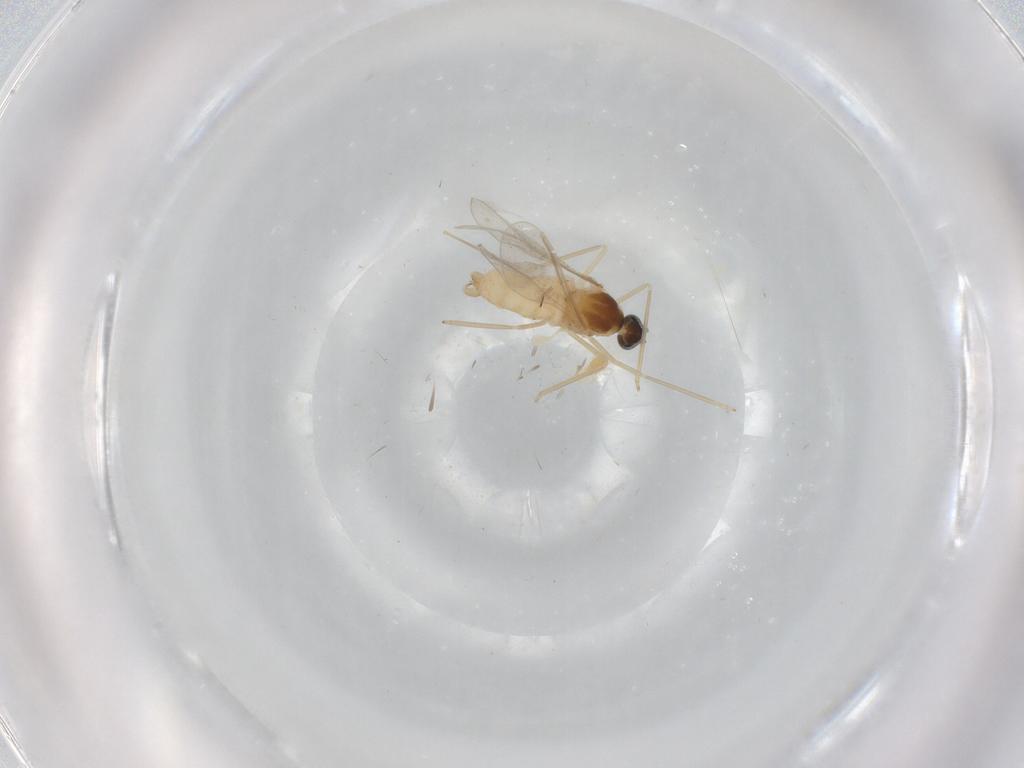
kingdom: Animalia
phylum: Arthropoda
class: Insecta
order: Diptera
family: Cecidomyiidae
